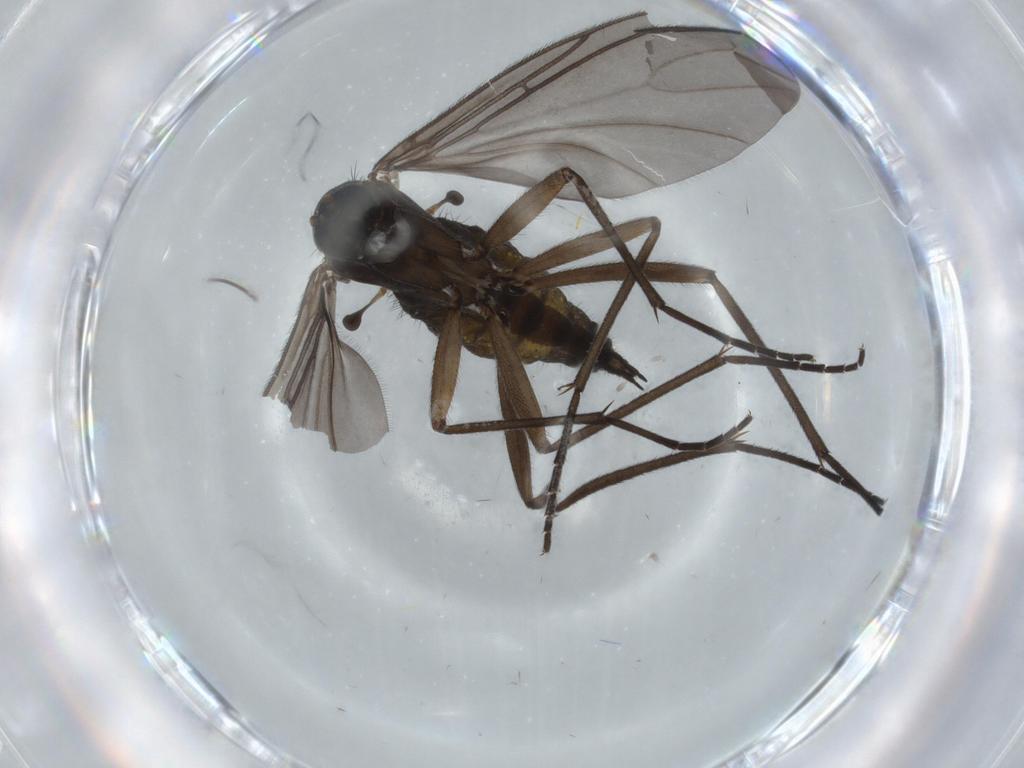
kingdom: Animalia
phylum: Arthropoda
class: Insecta
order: Diptera
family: Sciaridae
